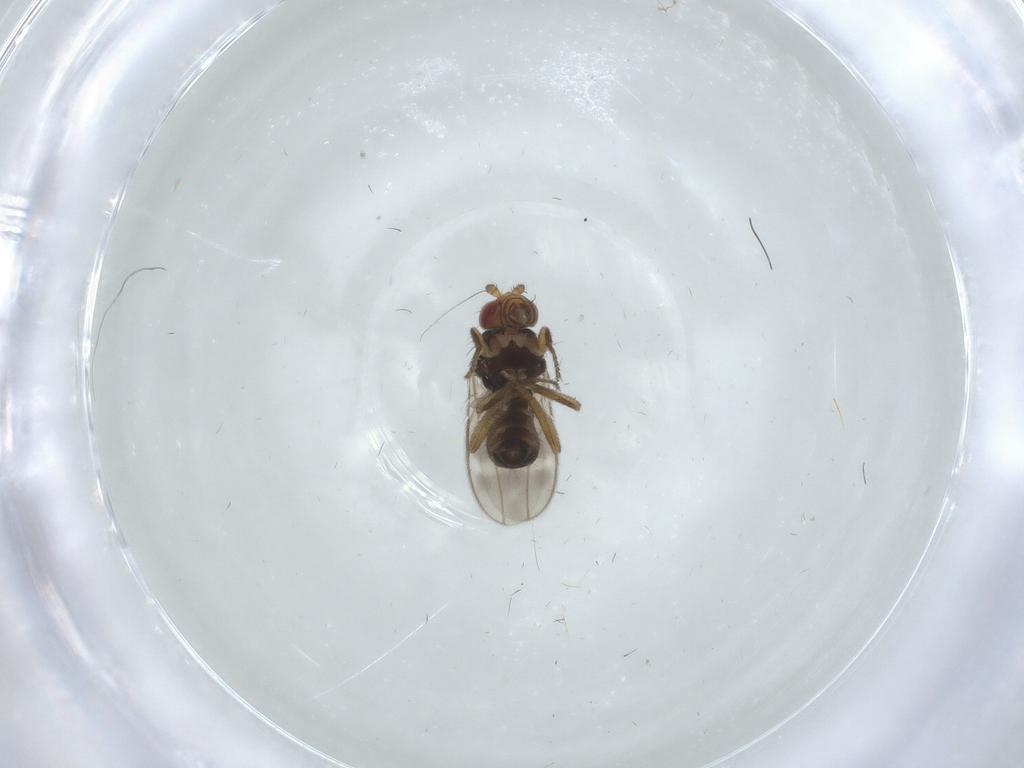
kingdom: Animalia
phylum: Arthropoda
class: Insecta
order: Diptera
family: Sphaeroceridae
